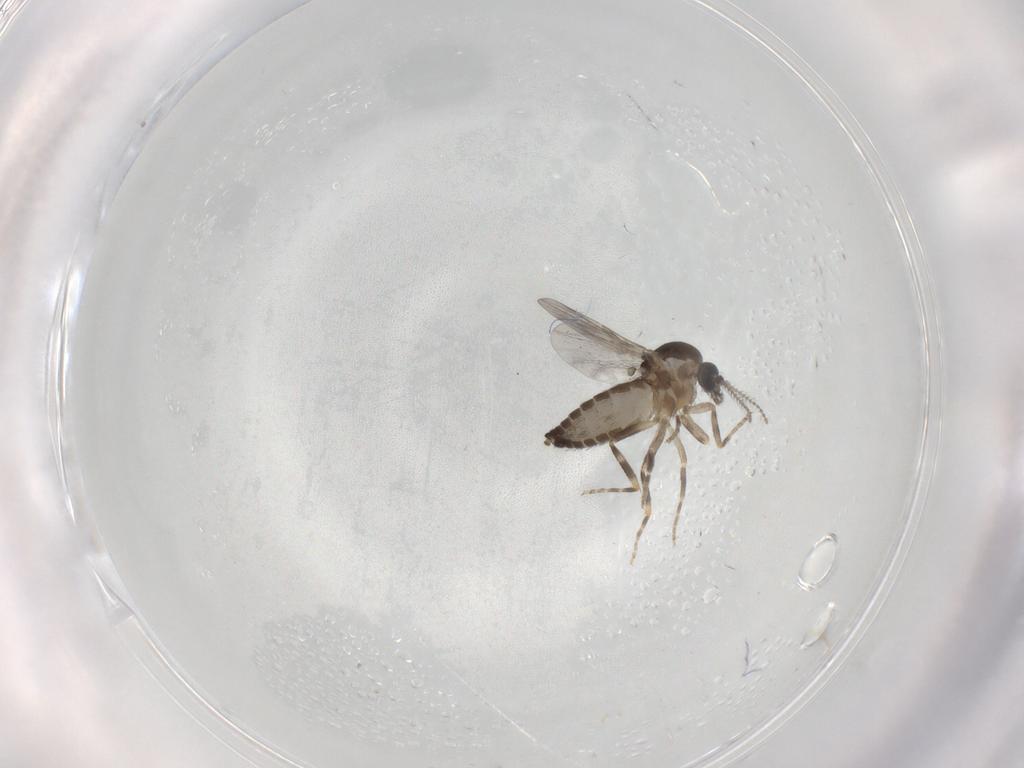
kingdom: Animalia
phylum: Arthropoda
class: Insecta
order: Diptera
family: Ceratopogonidae
